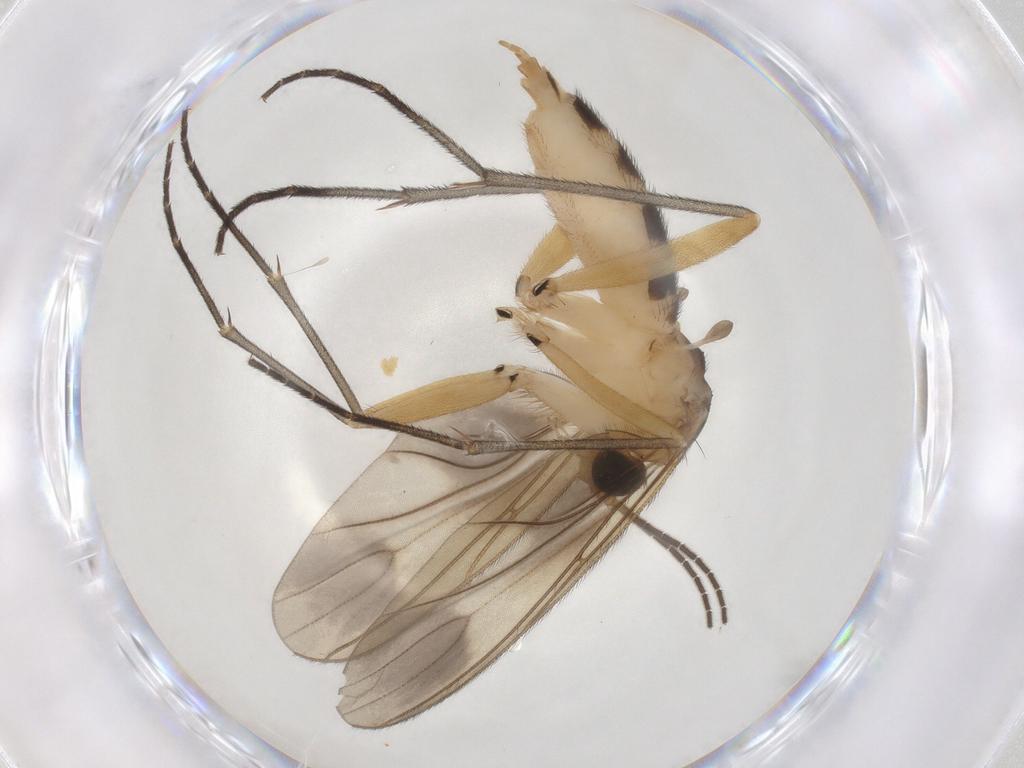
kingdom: Animalia
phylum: Arthropoda
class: Insecta
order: Diptera
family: Sciaridae
